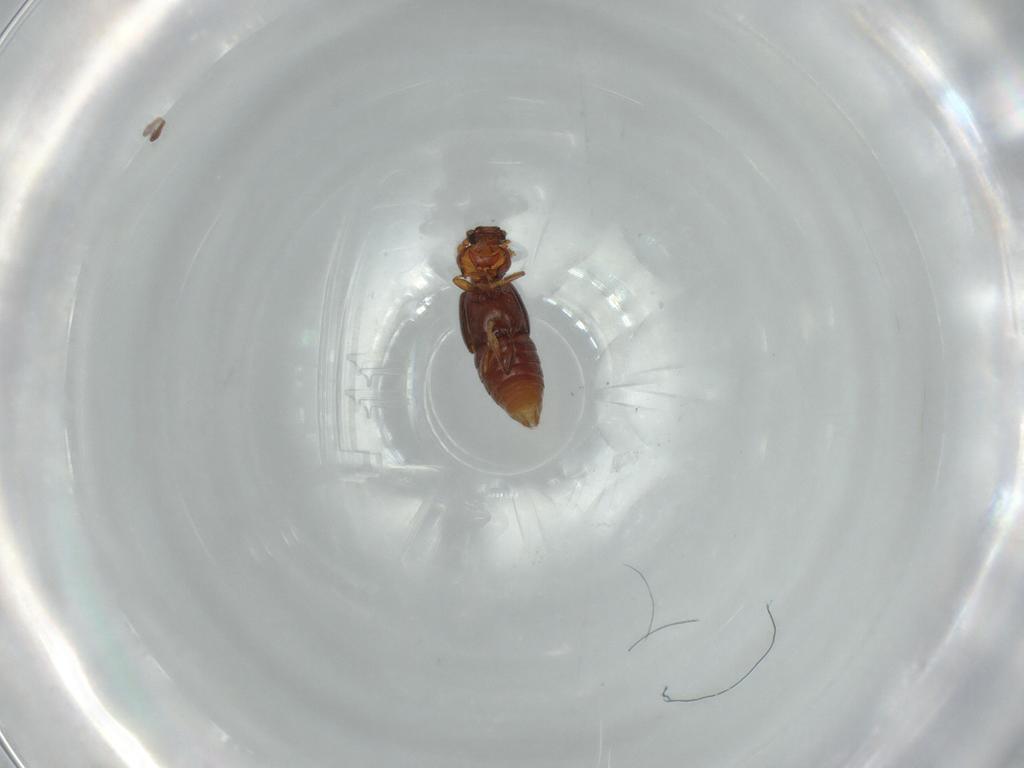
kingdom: Animalia
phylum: Arthropoda
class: Insecta
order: Coleoptera
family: Staphylinidae
